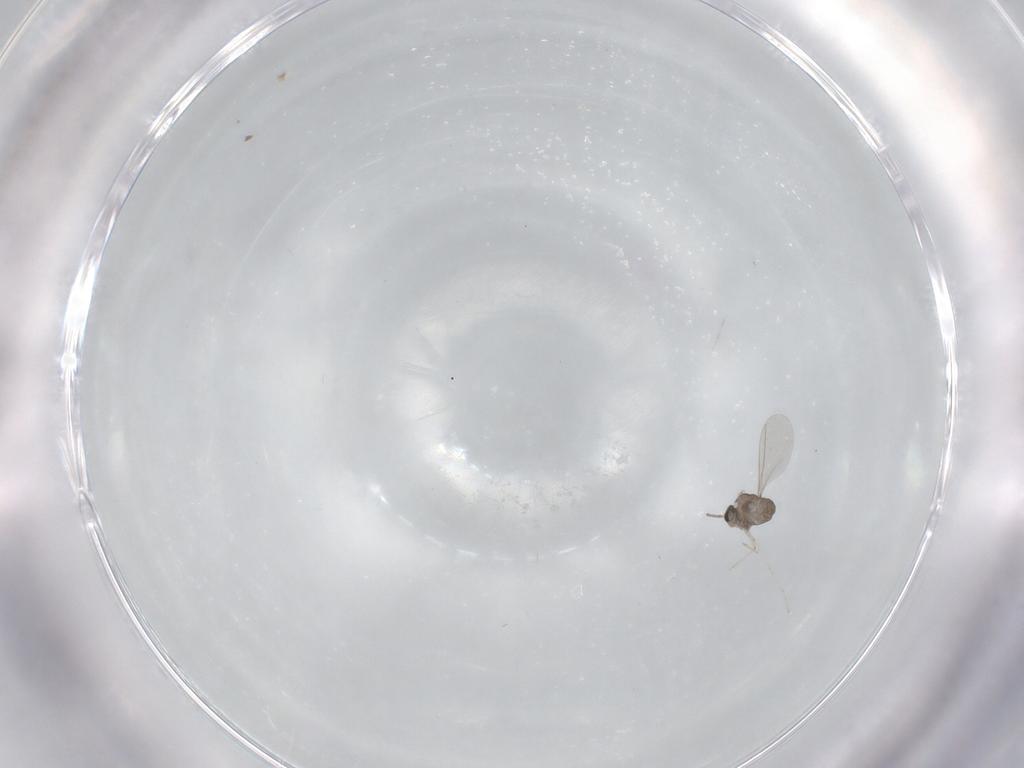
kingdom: Animalia
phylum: Arthropoda
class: Insecta
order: Diptera
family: Cecidomyiidae
